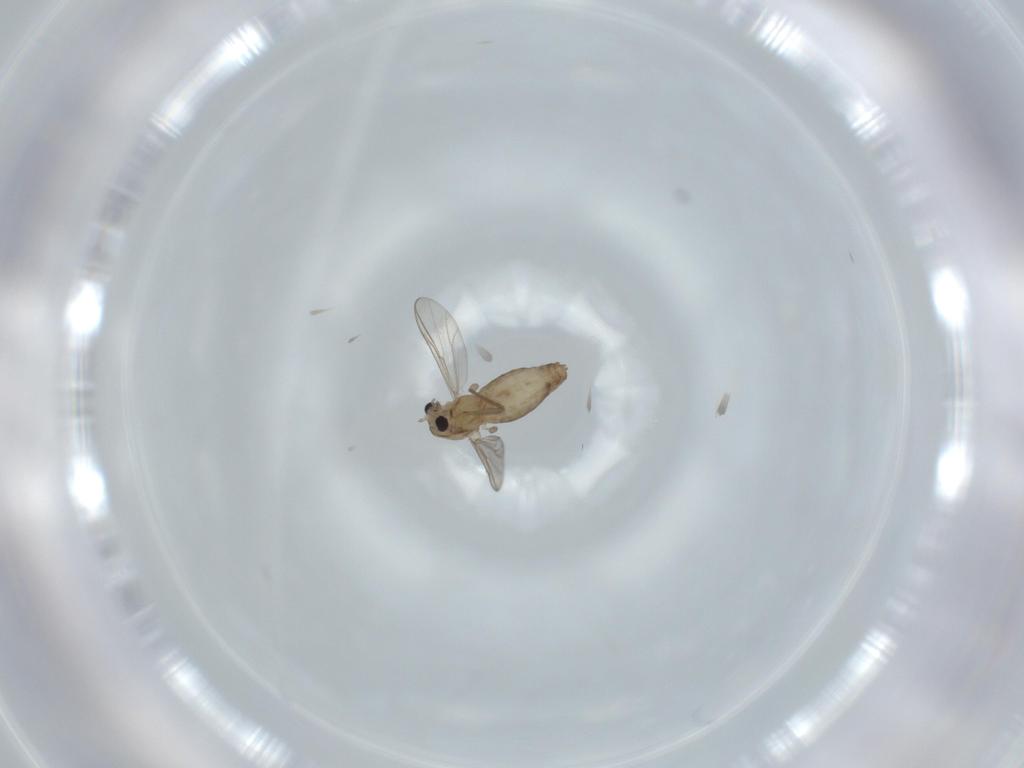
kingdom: Animalia
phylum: Arthropoda
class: Insecta
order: Diptera
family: Chironomidae
